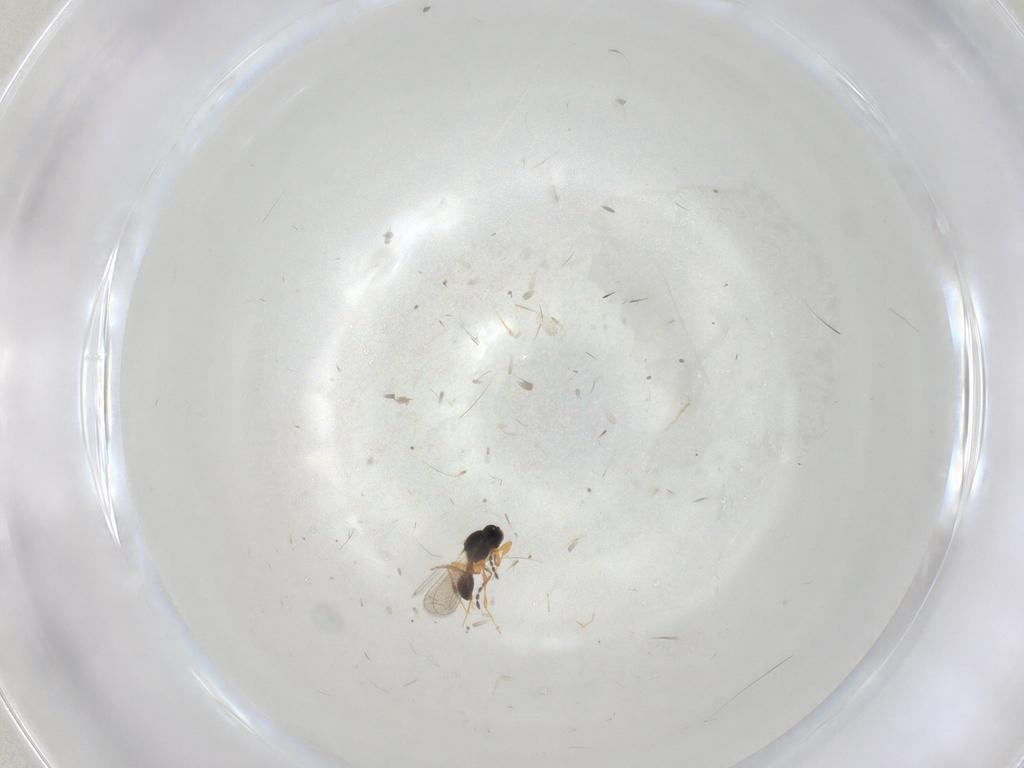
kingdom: Animalia
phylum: Arthropoda
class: Insecta
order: Hymenoptera
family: Platygastridae
